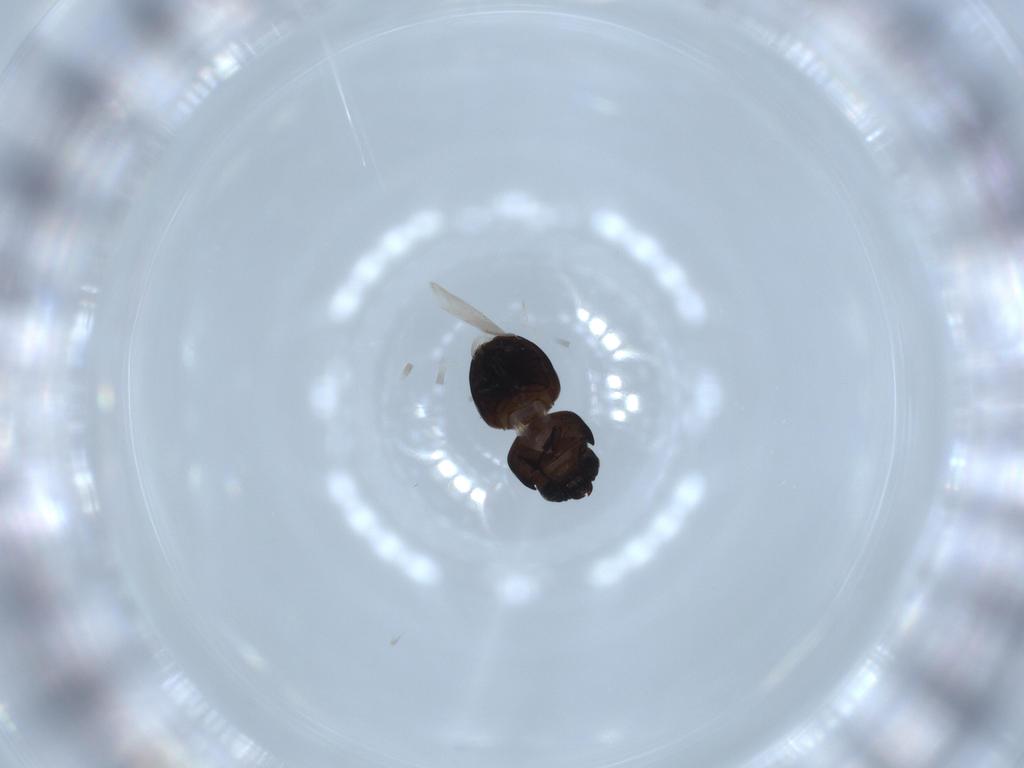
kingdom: Animalia
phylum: Arthropoda
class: Insecta
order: Coleoptera
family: Cybocephalidae
